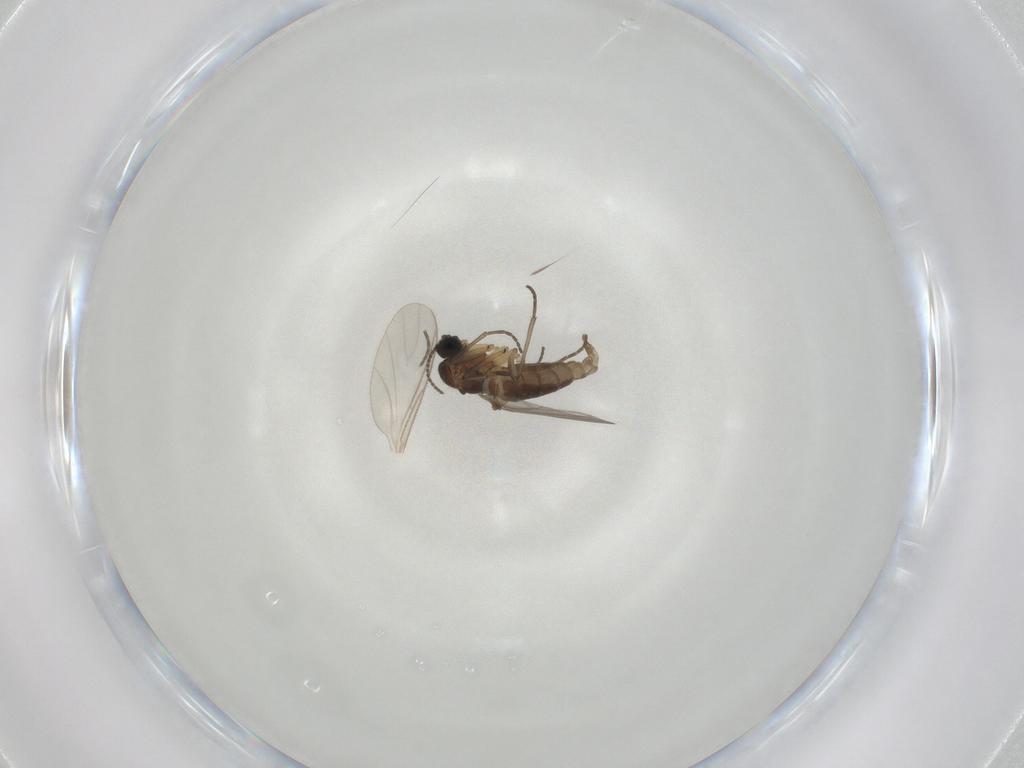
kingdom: Animalia
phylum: Arthropoda
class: Insecta
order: Diptera
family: Sciaridae
